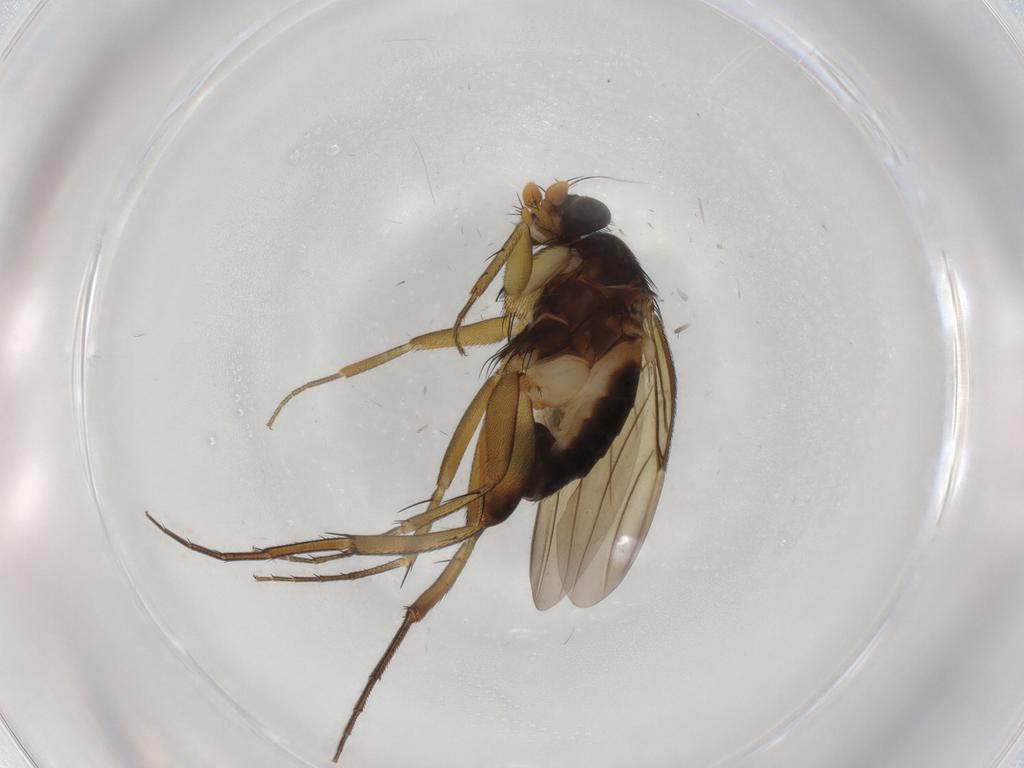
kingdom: Animalia
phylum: Arthropoda
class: Insecta
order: Diptera
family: Phoridae
